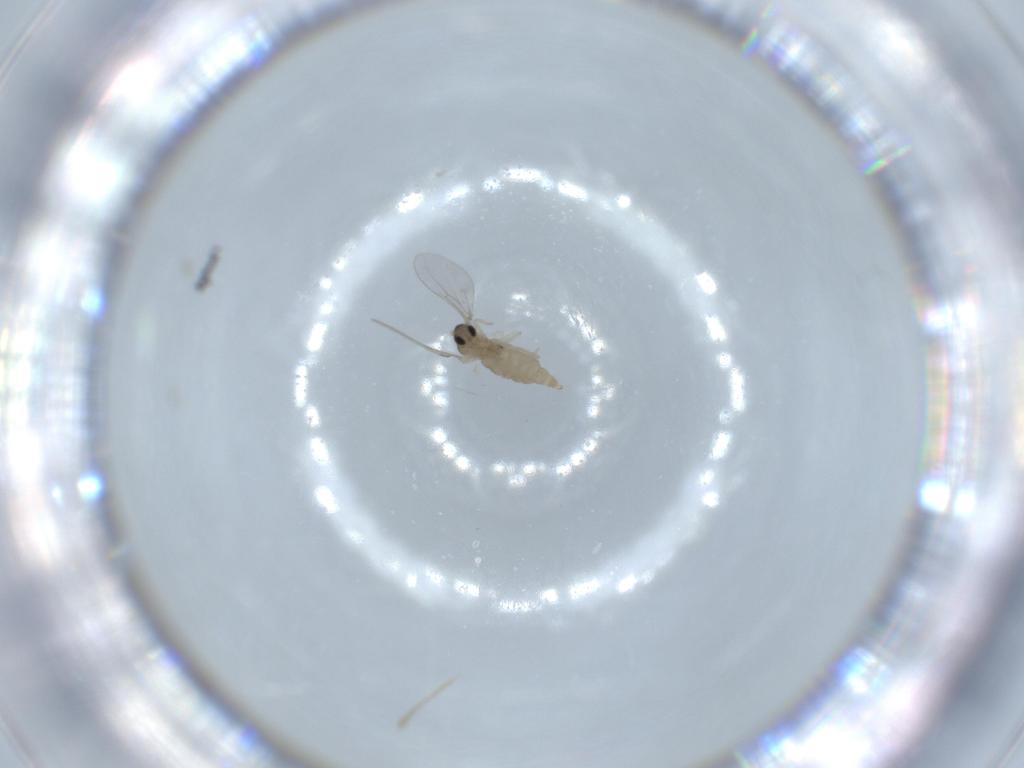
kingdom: Animalia
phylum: Arthropoda
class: Insecta
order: Diptera
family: Cecidomyiidae
